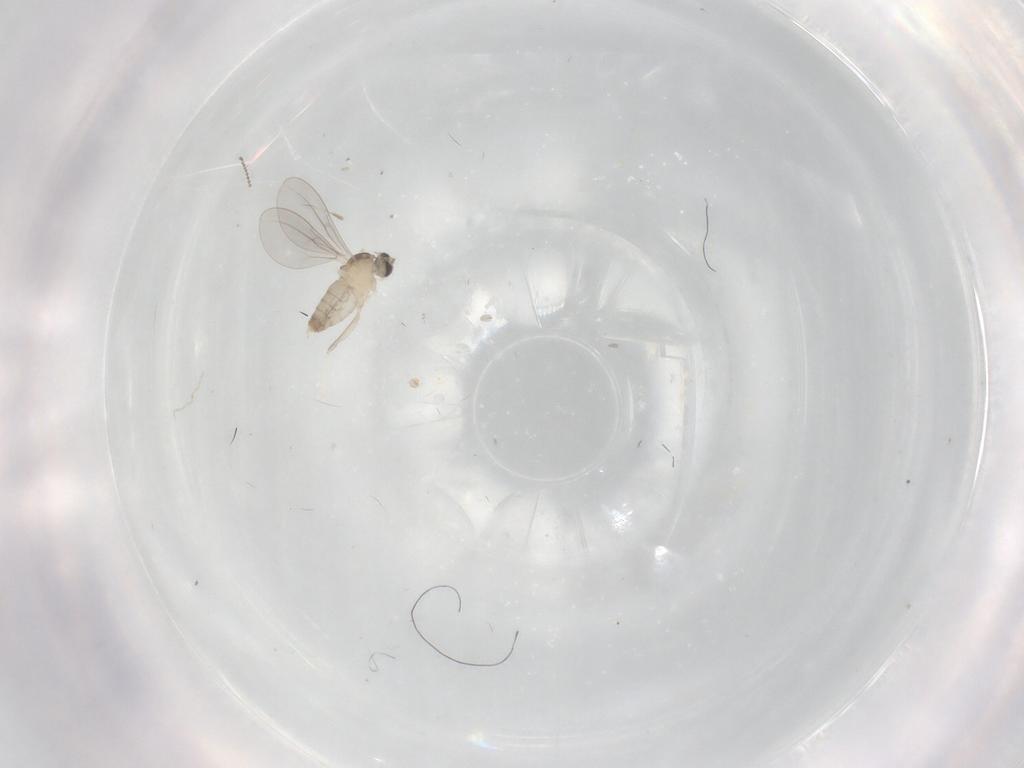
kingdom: Animalia
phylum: Arthropoda
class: Insecta
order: Diptera
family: Cecidomyiidae
